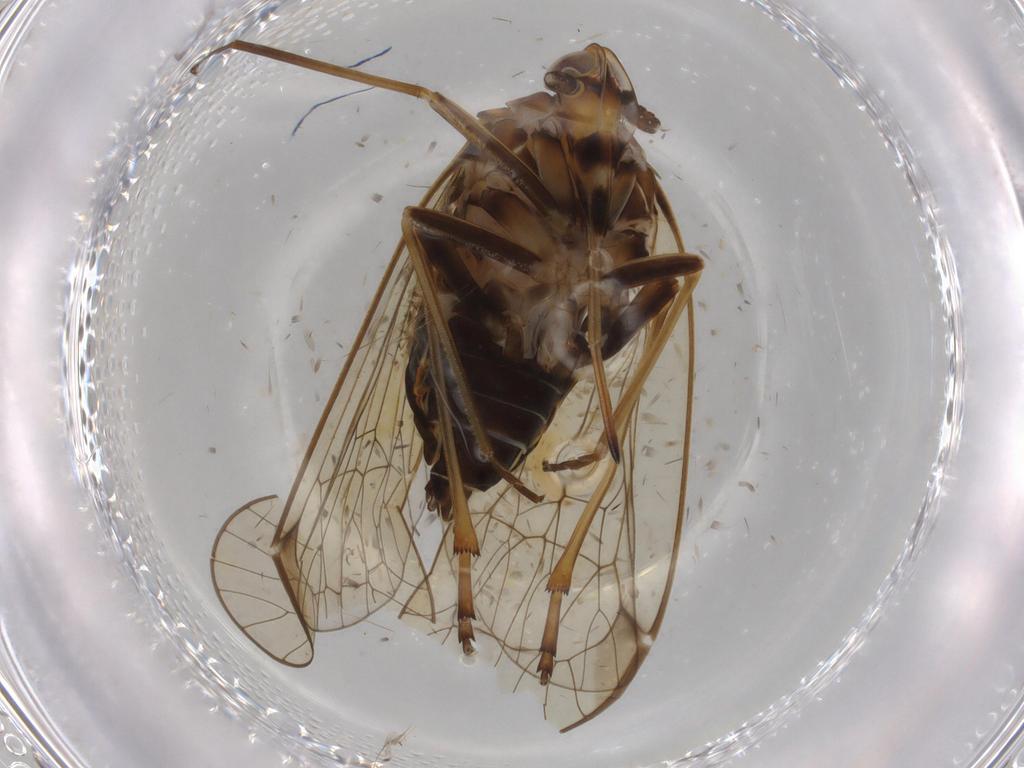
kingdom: Animalia
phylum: Arthropoda
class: Insecta
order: Hemiptera
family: Kinnaridae
